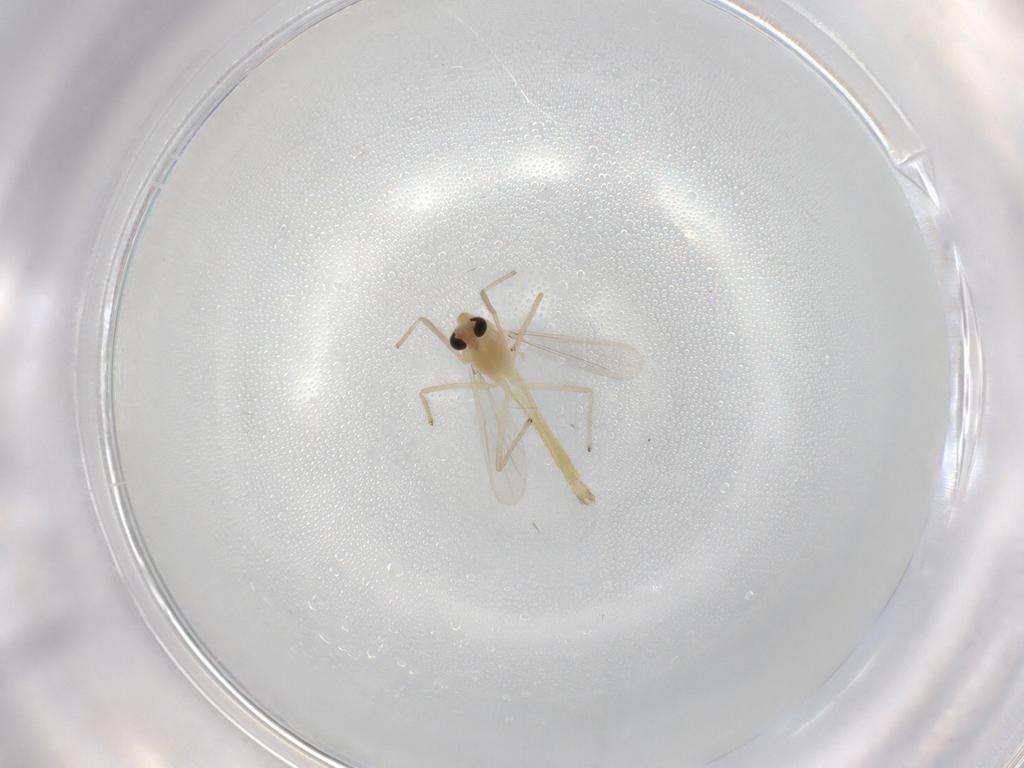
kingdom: Animalia
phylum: Arthropoda
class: Insecta
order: Diptera
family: Chironomidae
